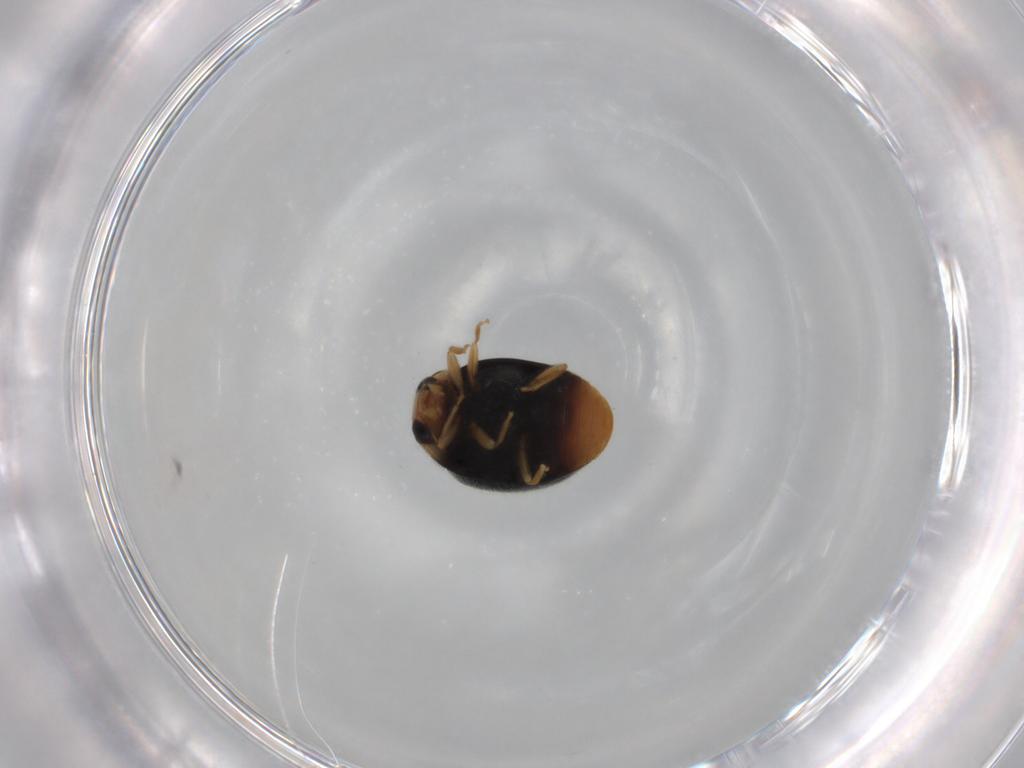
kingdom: Animalia
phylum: Arthropoda
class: Insecta
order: Coleoptera
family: Coccinellidae
